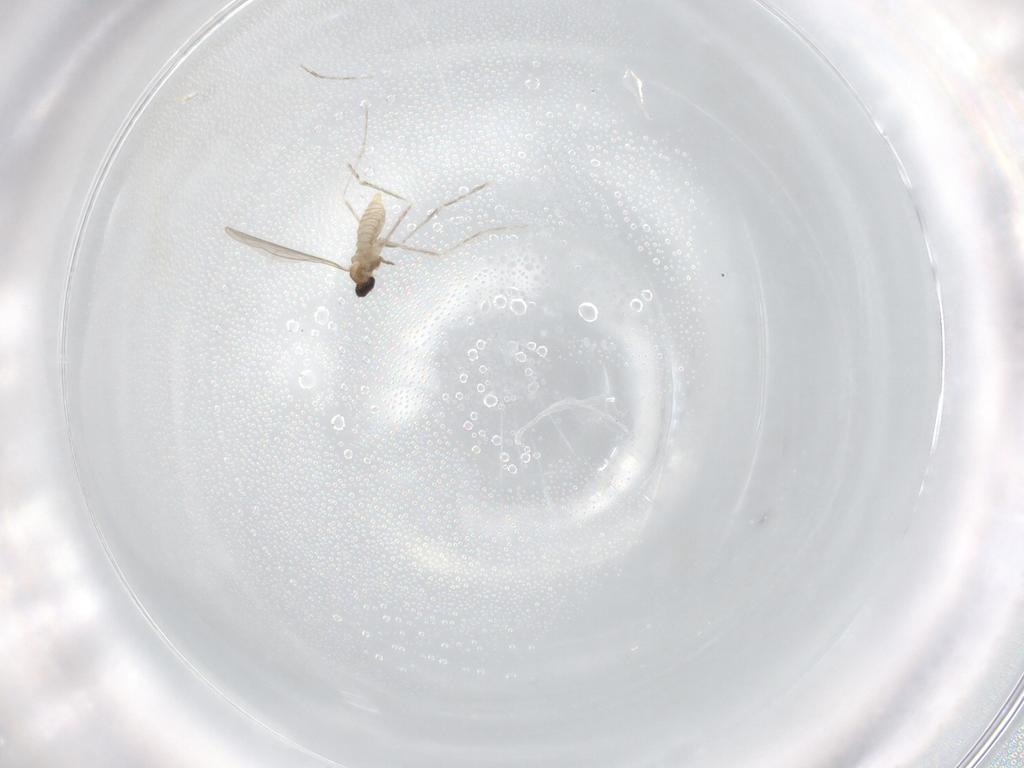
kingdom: Animalia
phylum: Arthropoda
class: Insecta
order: Diptera
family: Cecidomyiidae
